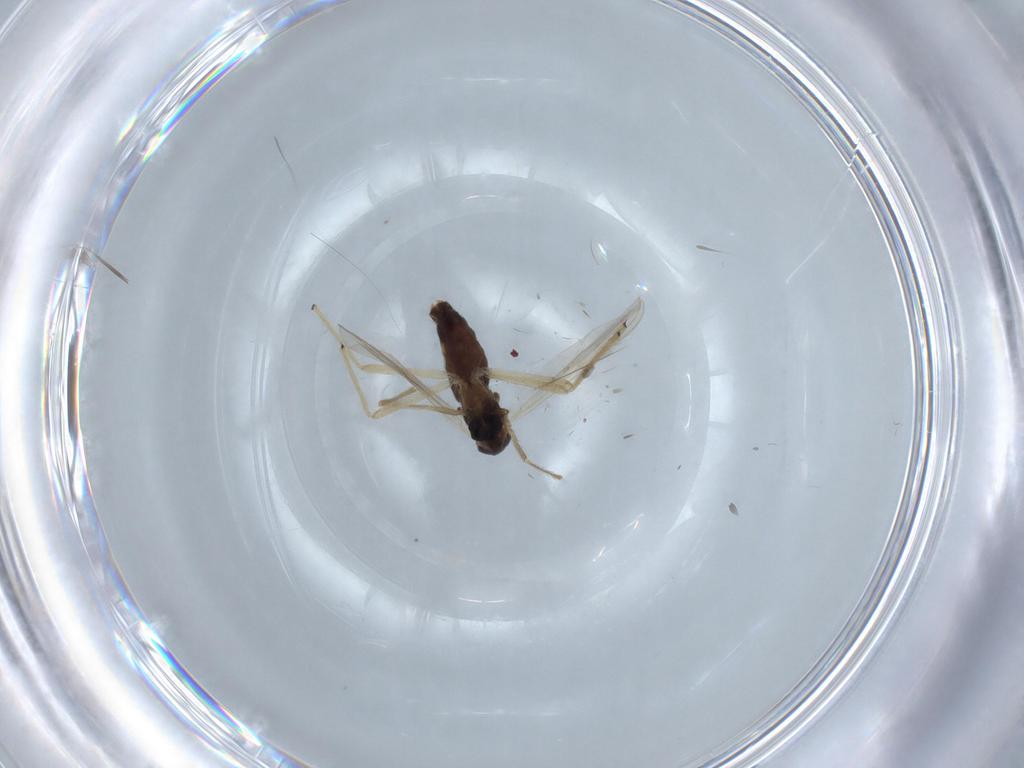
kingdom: Animalia
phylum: Arthropoda
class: Insecta
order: Diptera
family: Chironomidae
